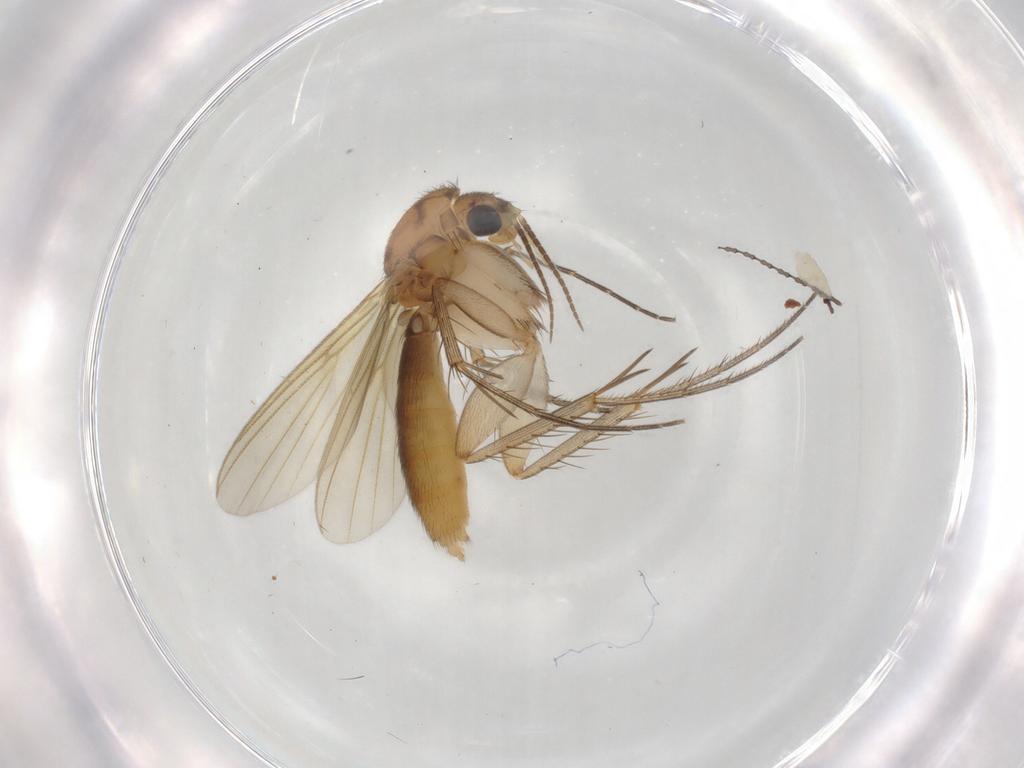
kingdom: Animalia
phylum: Arthropoda
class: Insecta
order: Diptera
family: Mycetophilidae
